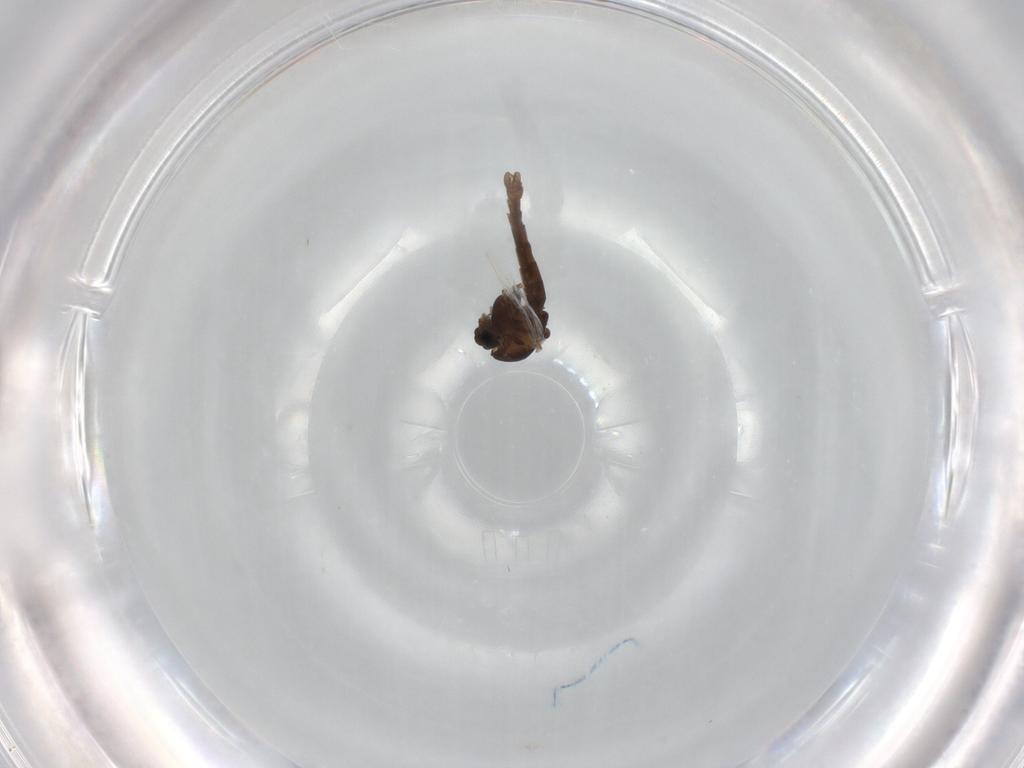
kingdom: Animalia
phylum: Arthropoda
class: Insecta
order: Diptera
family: Chironomidae
